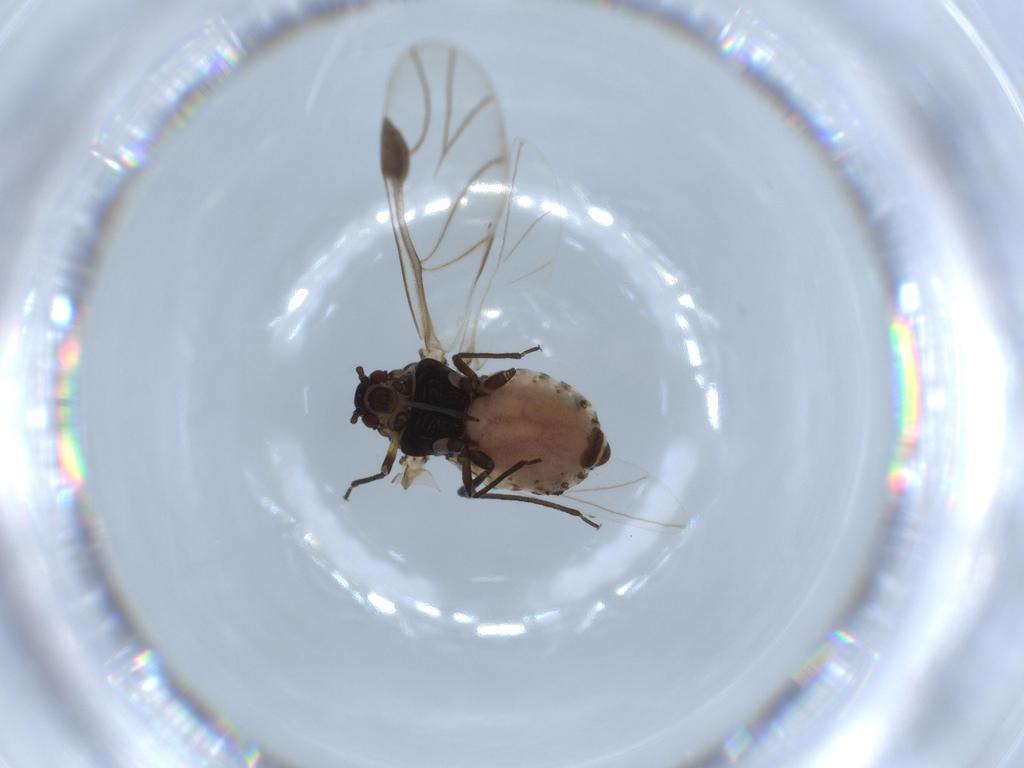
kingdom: Animalia
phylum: Arthropoda
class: Insecta
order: Hemiptera
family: Aphididae
